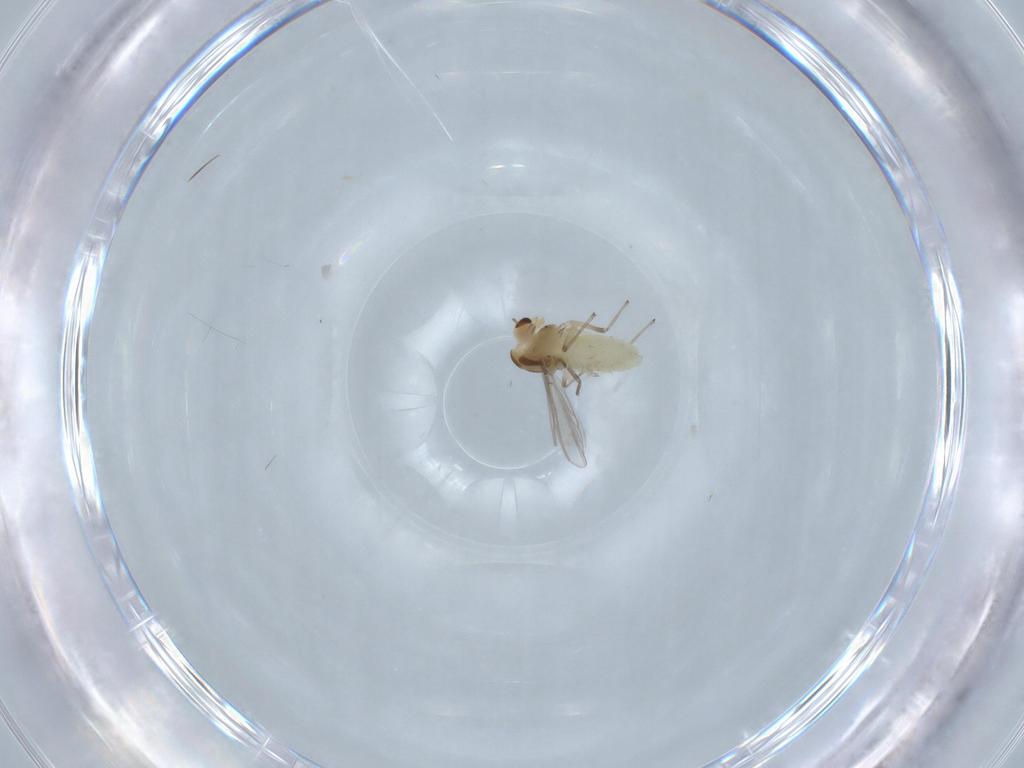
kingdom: Animalia
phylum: Arthropoda
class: Insecta
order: Diptera
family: Chironomidae
